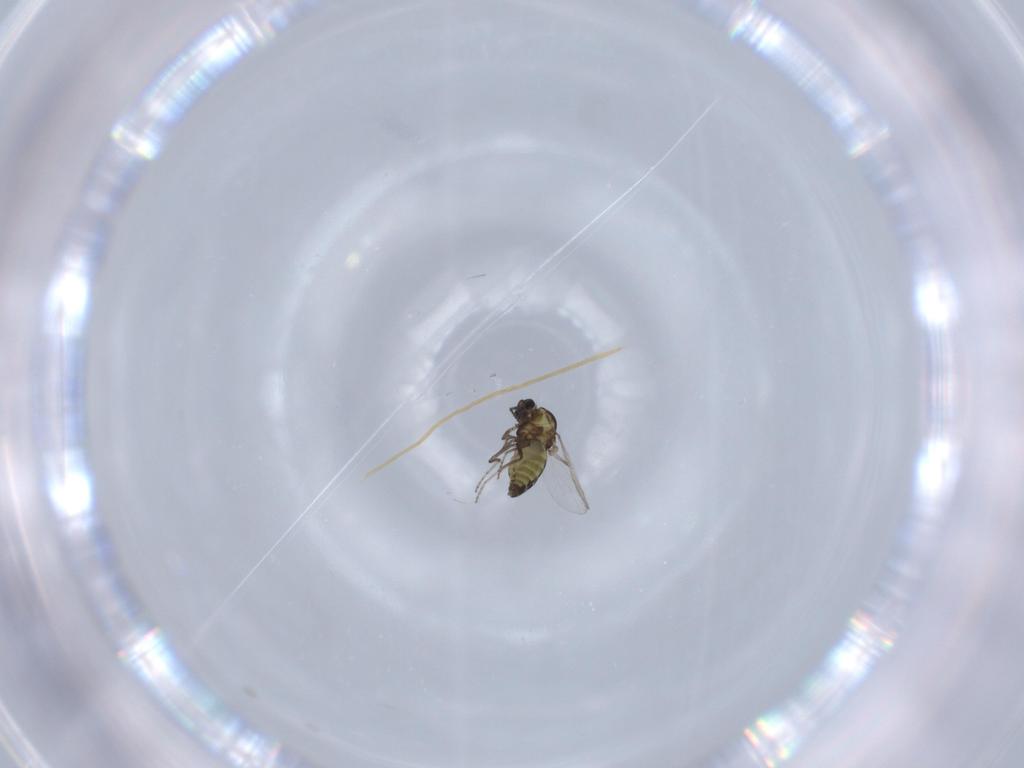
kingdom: Animalia
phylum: Arthropoda
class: Insecta
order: Diptera
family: Ceratopogonidae
